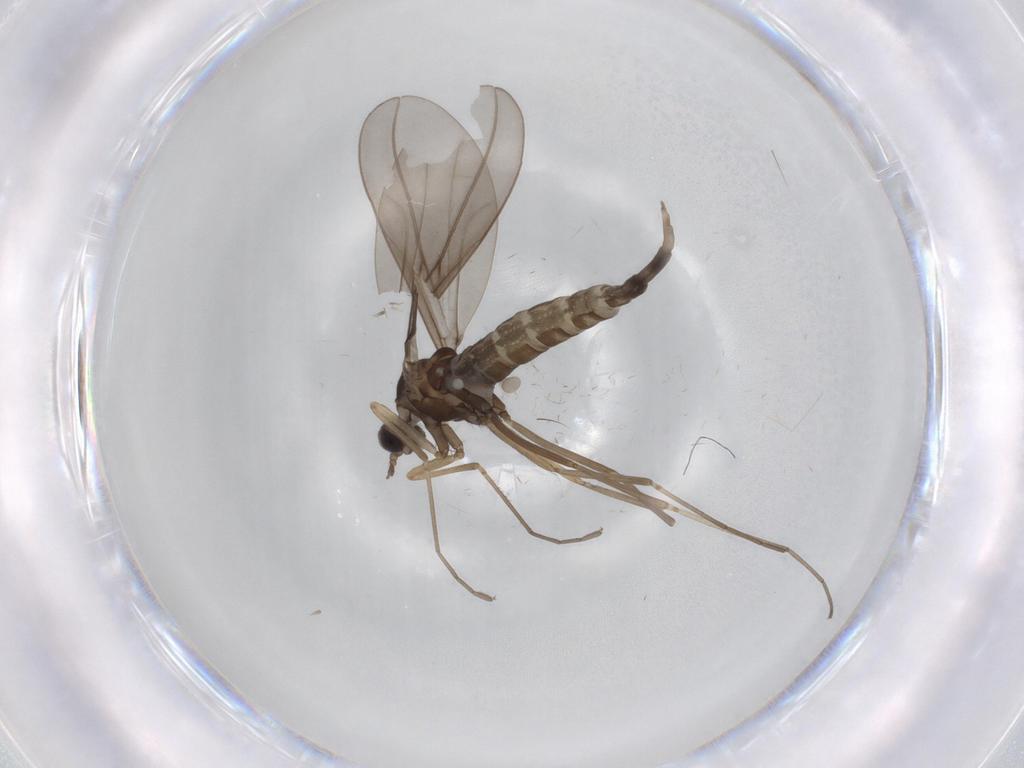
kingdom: Animalia
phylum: Arthropoda
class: Insecta
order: Diptera
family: Cecidomyiidae
